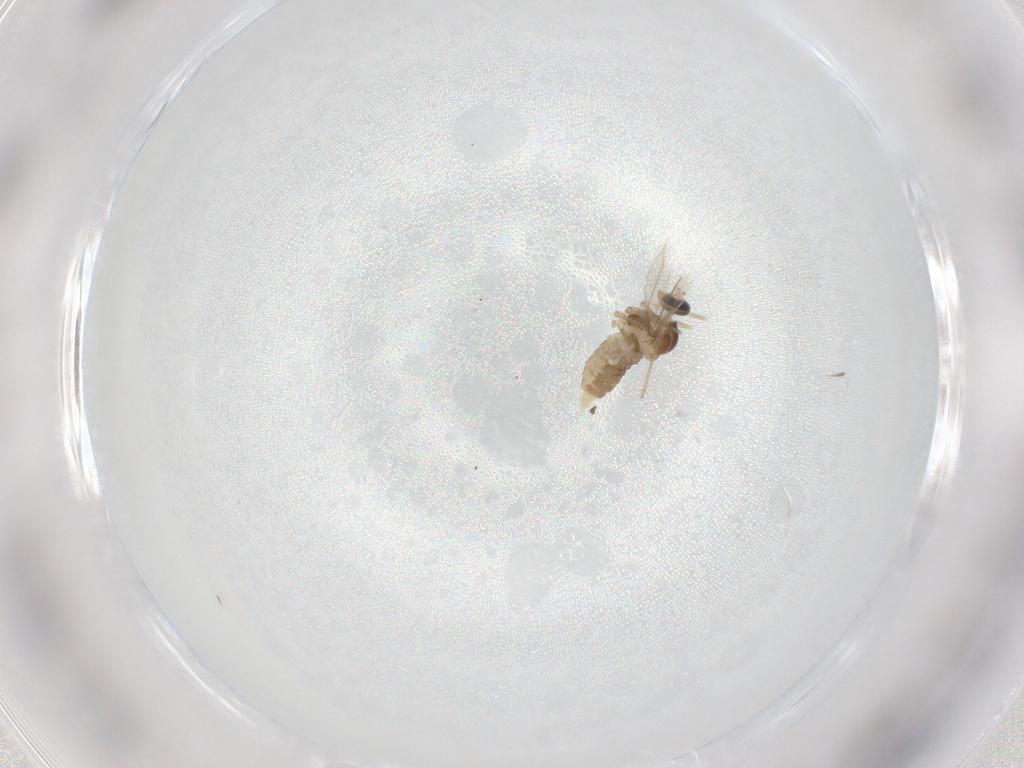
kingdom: Animalia
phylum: Arthropoda
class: Insecta
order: Diptera
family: Cecidomyiidae
